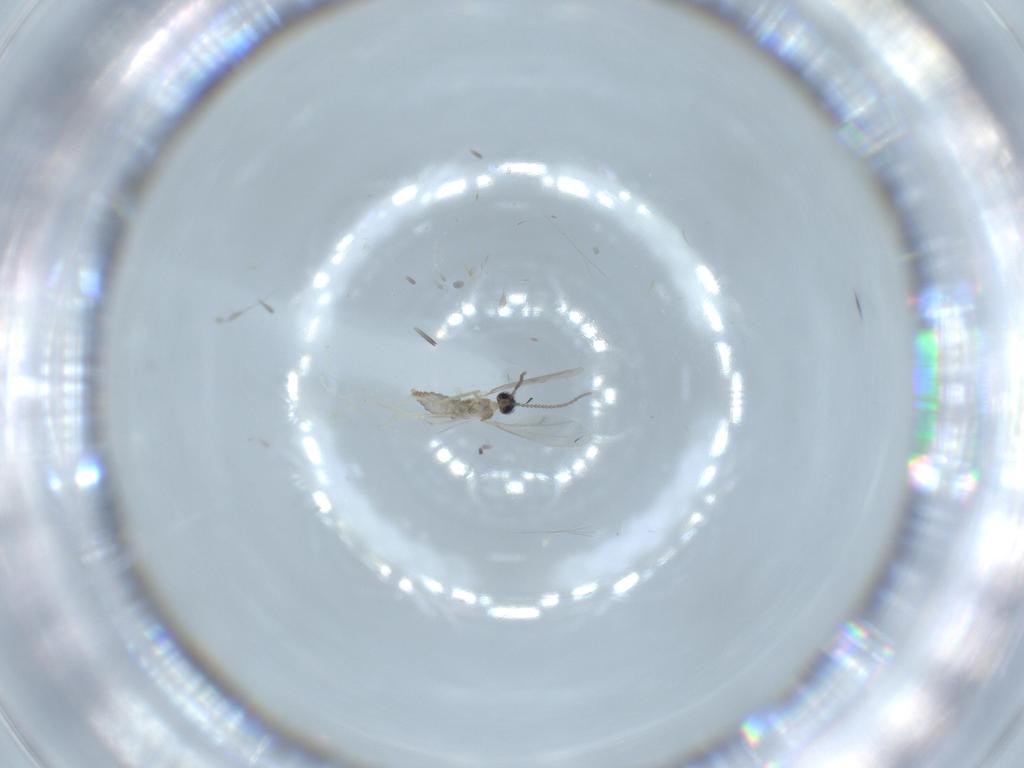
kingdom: Animalia
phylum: Arthropoda
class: Insecta
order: Diptera
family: Cecidomyiidae
